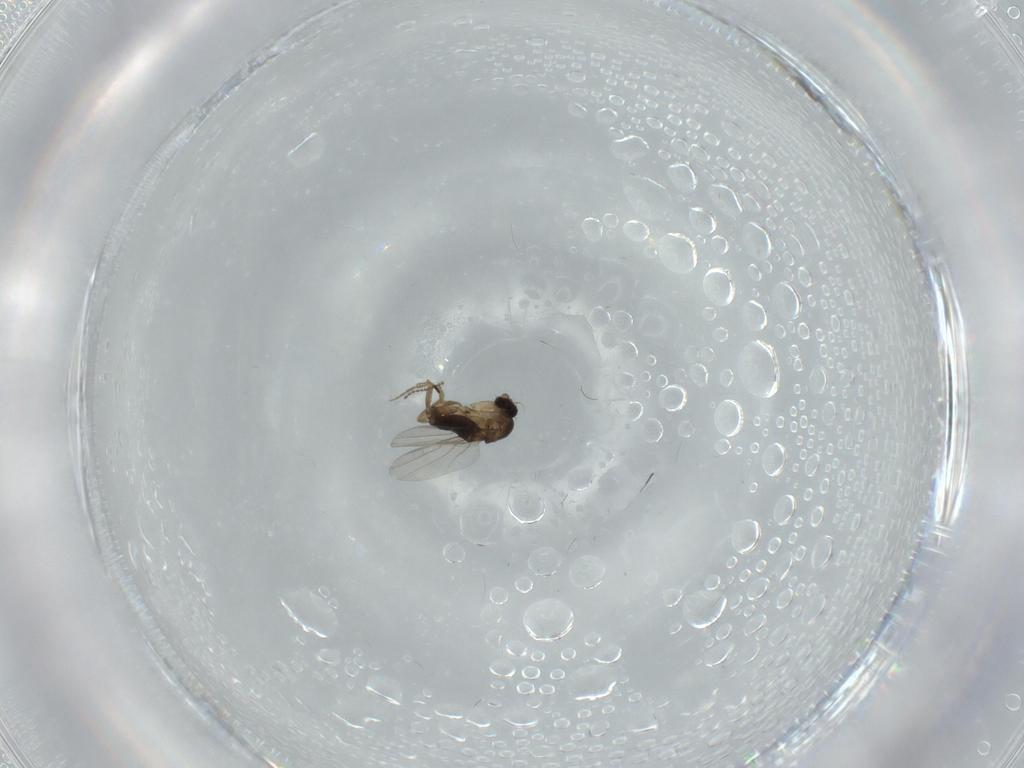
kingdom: Animalia
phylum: Arthropoda
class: Insecta
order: Diptera
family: Phoridae
